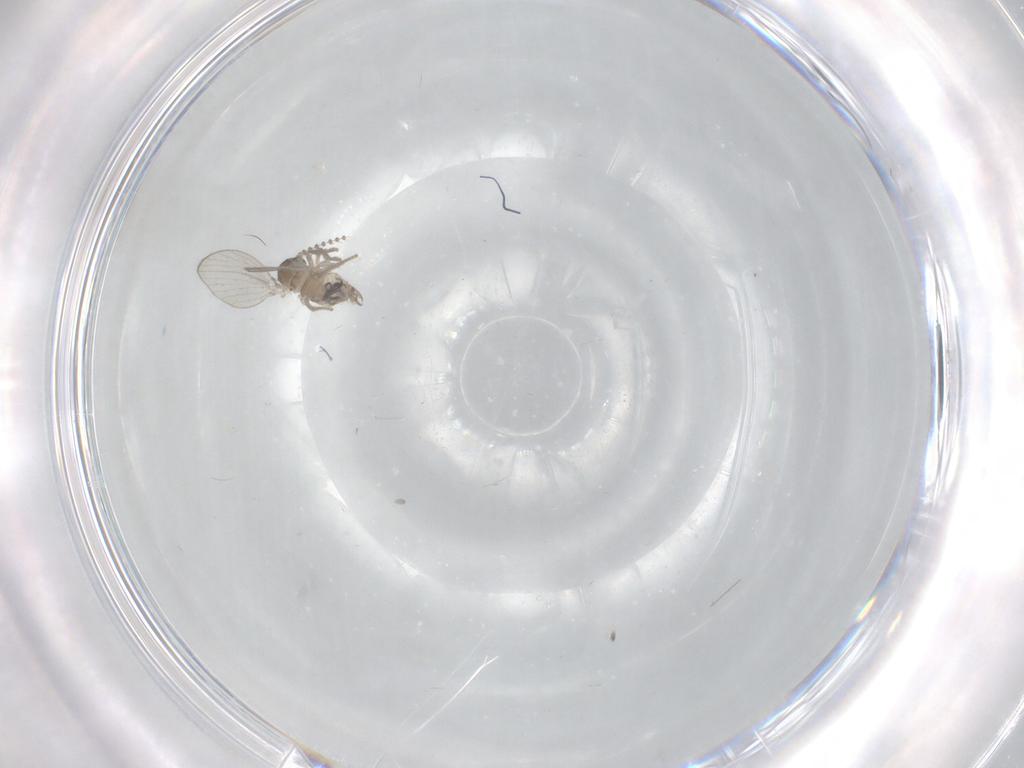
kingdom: Animalia
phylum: Arthropoda
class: Insecta
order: Diptera
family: Psychodidae
